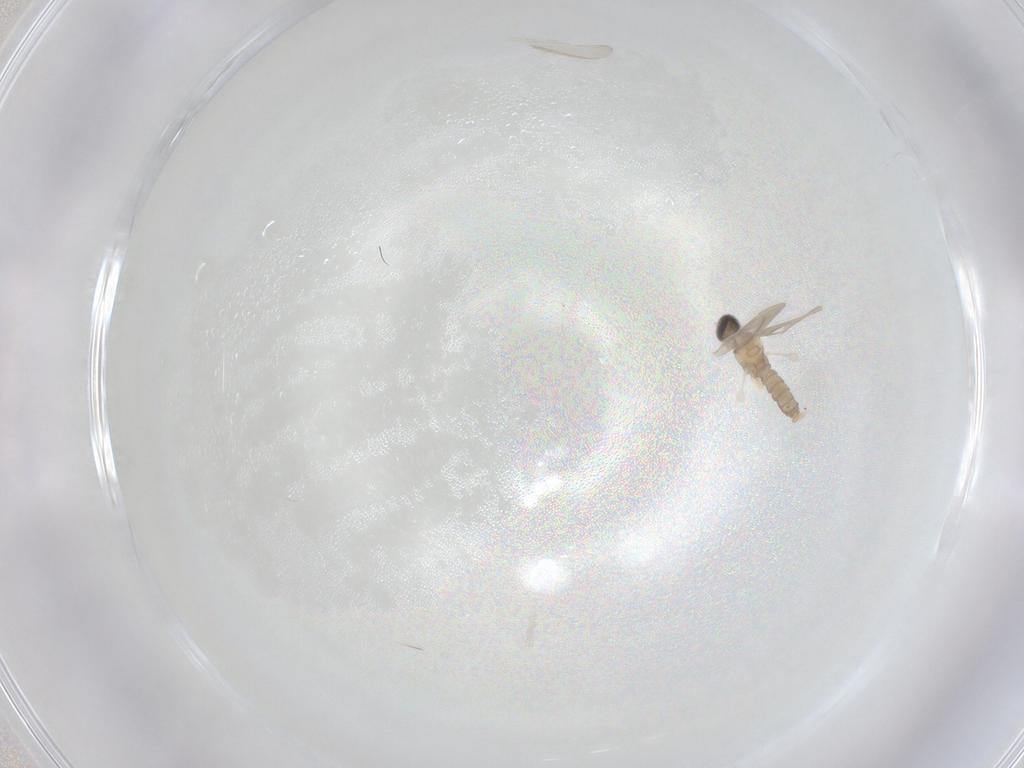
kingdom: Animalia
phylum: Arthropoda
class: Insecta
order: Diptera
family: Cecidomyiidae
